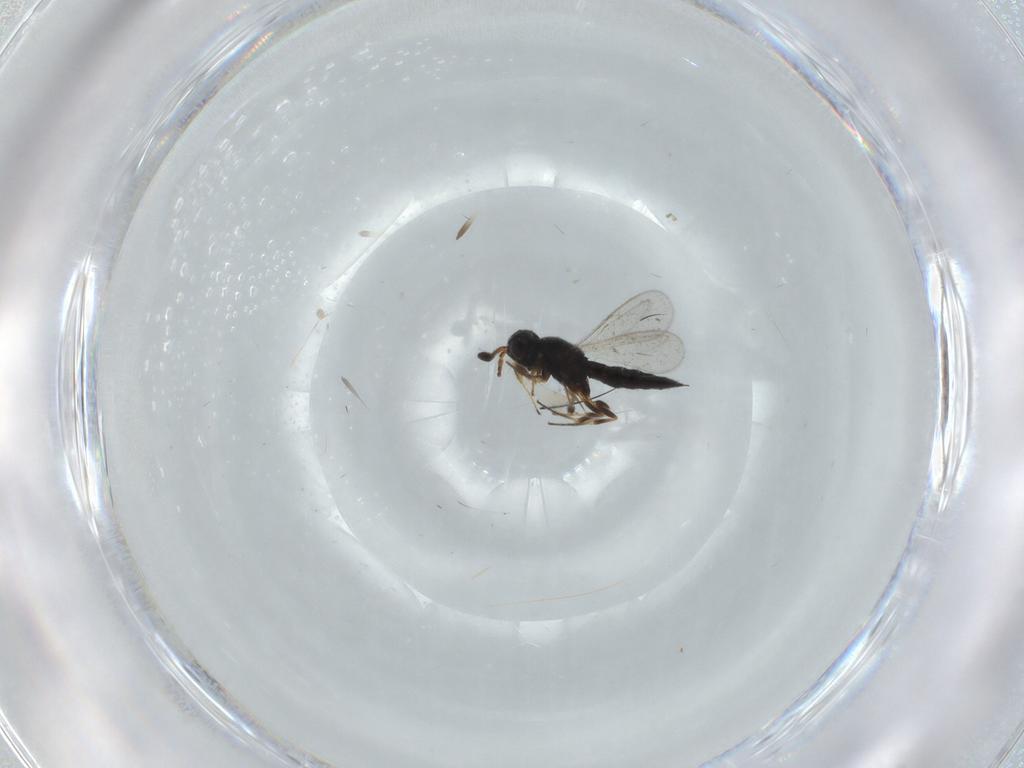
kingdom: Animalia
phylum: Arthropoda
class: Insecta
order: Hymenoptera
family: Scelionidae
